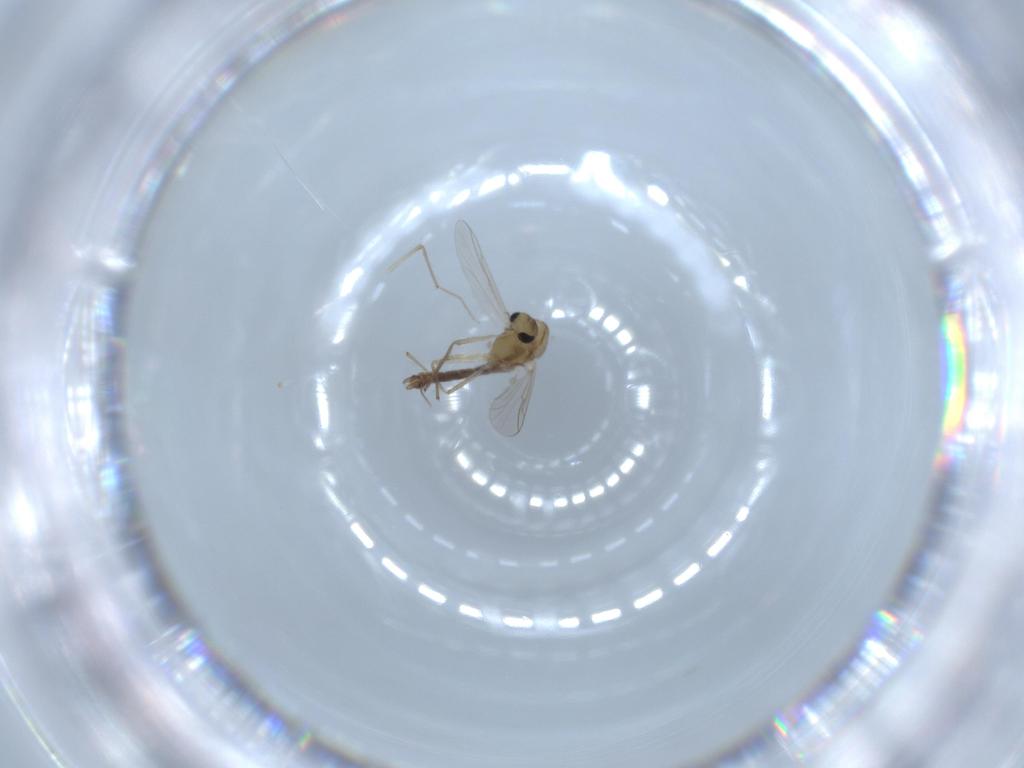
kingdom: Animalia
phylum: Arthropoda
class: Insecta
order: Diptera
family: Chironomidae
